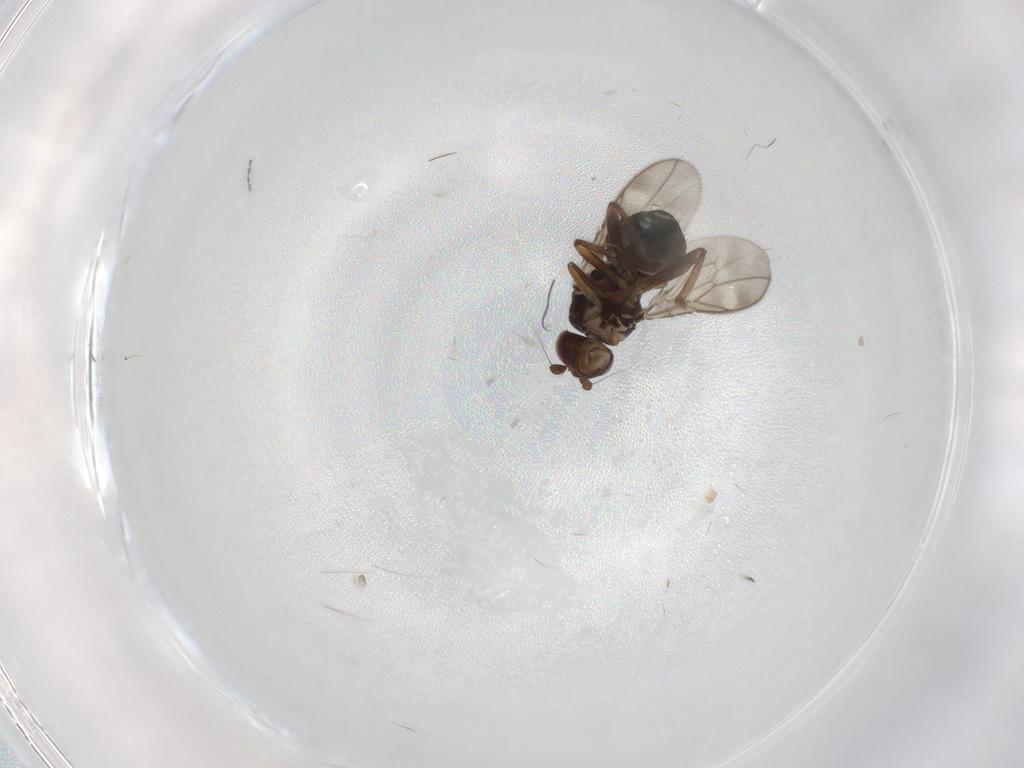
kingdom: Animalia
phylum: Arthropoda
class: Insecta
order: Diptera
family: Sphaeroceridae
